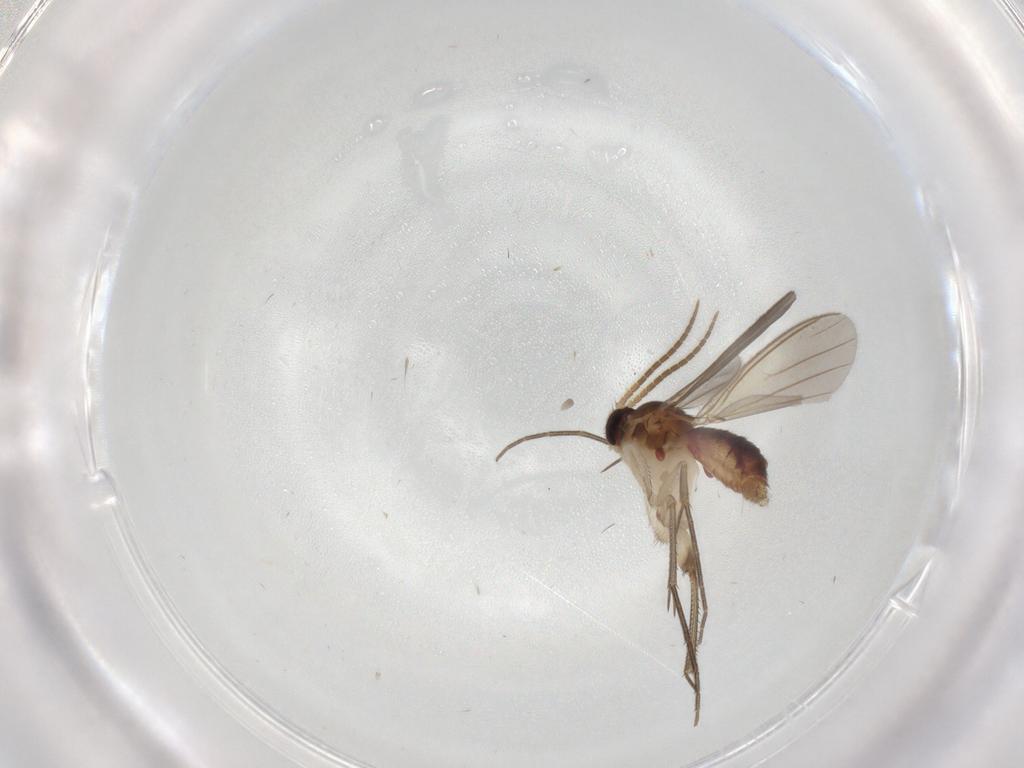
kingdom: Animalia
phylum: Arthropoda
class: Insecta
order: Diptera
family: Mycetophilidae
